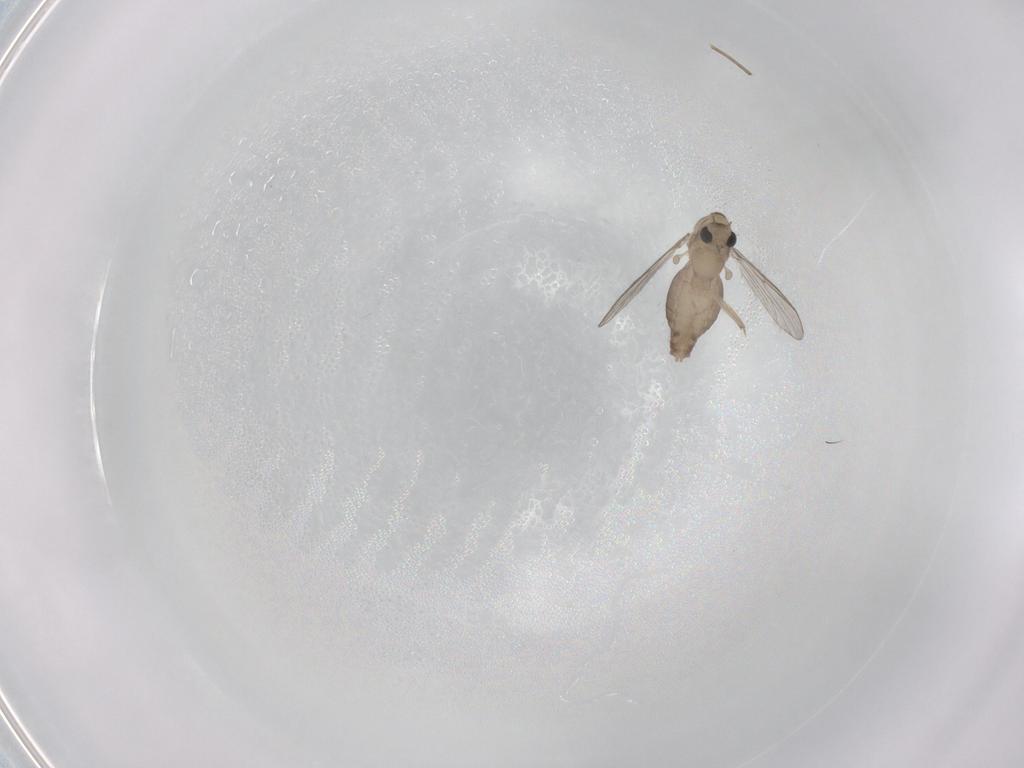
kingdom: Animalia
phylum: Arthropoda
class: Insecta
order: Diptera
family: Chironomidae
